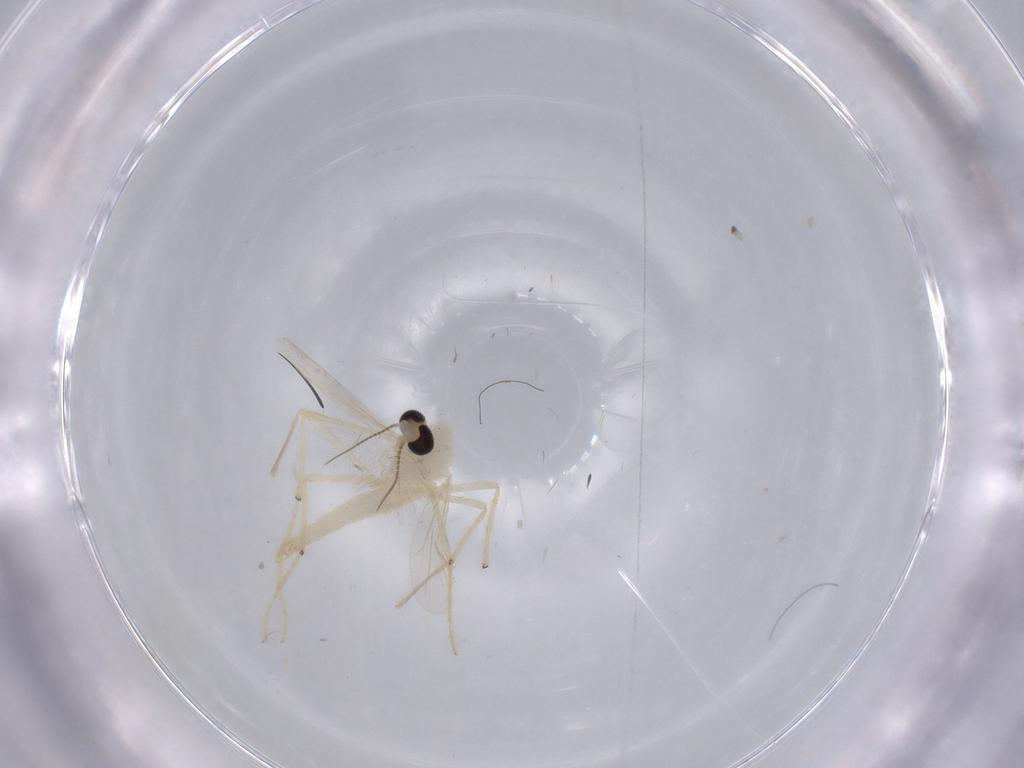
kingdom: Animalia
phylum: Arthropoda
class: Insecta
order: Diptera
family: Chironomidae
